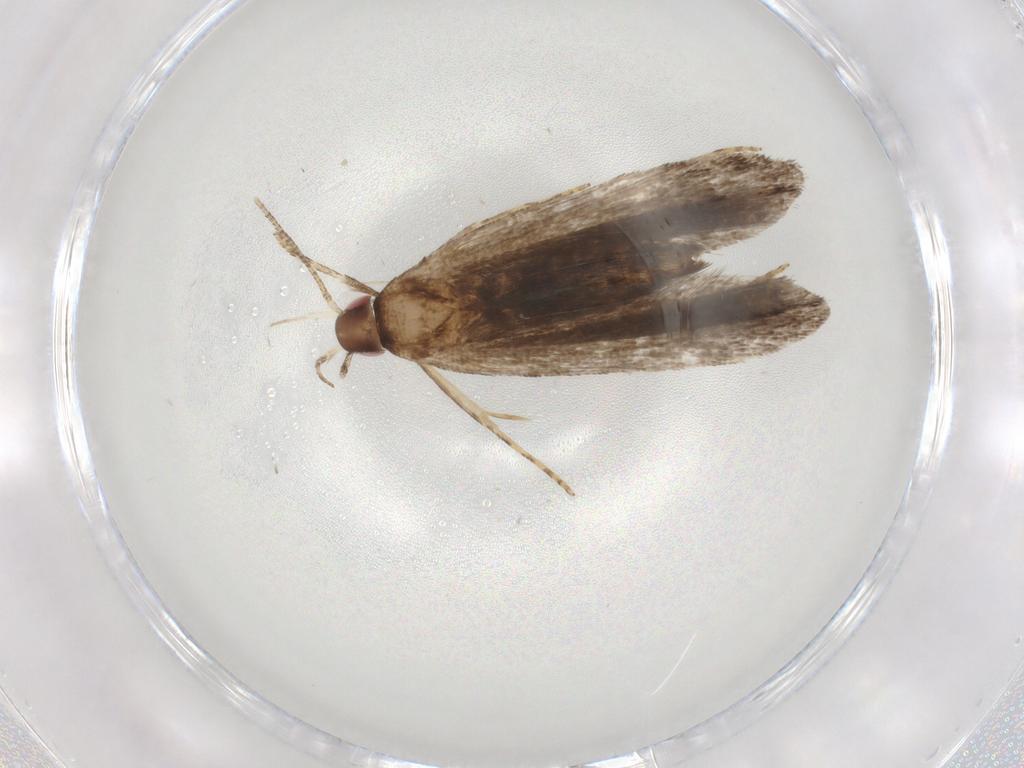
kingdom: Animalia
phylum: Arthropoda
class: Insecta
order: Lepidoptera
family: Gelechiidae
